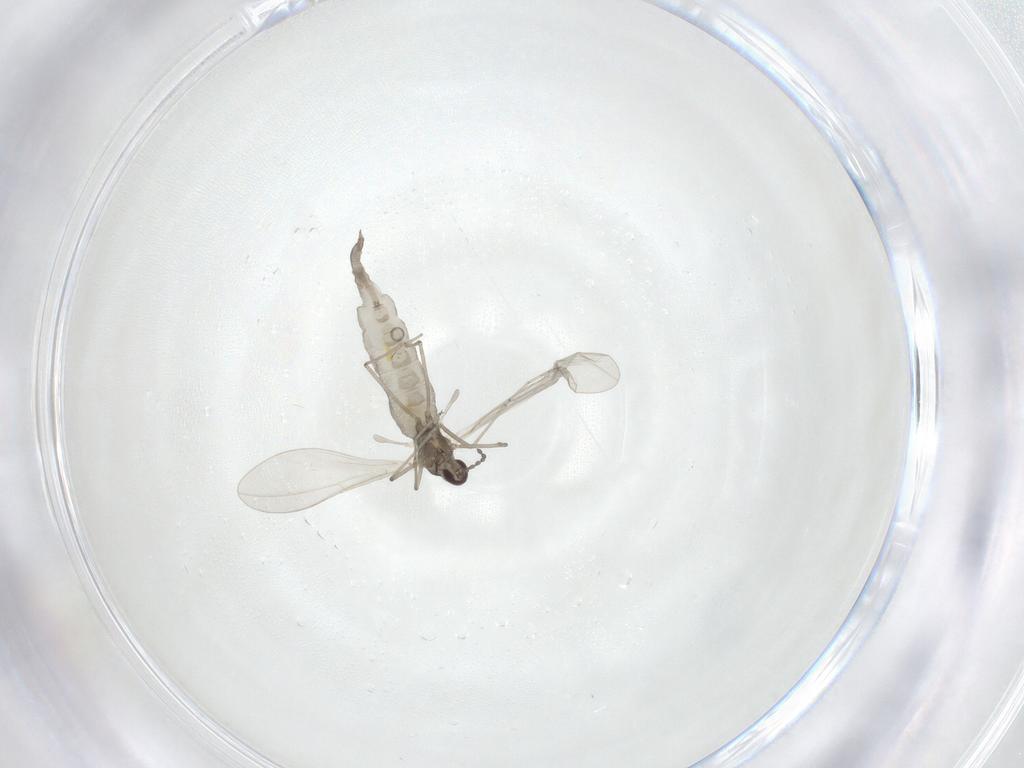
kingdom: Animalia
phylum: Arthropoda
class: Insecta
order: Diptera
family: Cecidomyiidae
